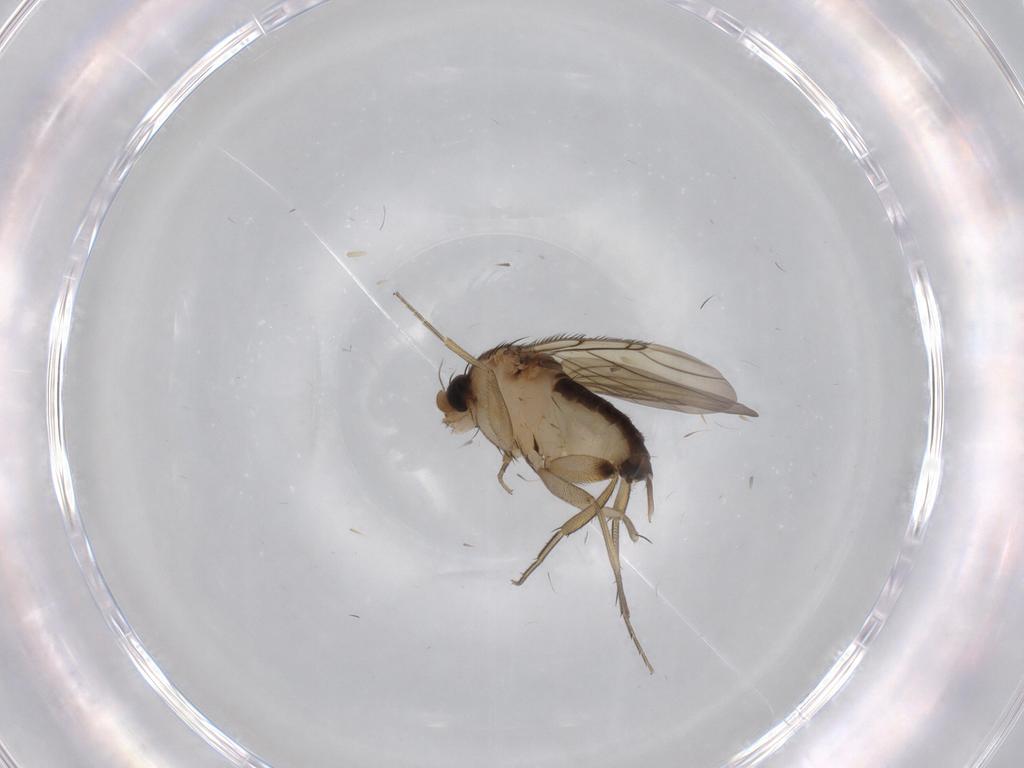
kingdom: Animalia
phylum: Arthropoda
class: Insecta
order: Diptera
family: Phoridae
